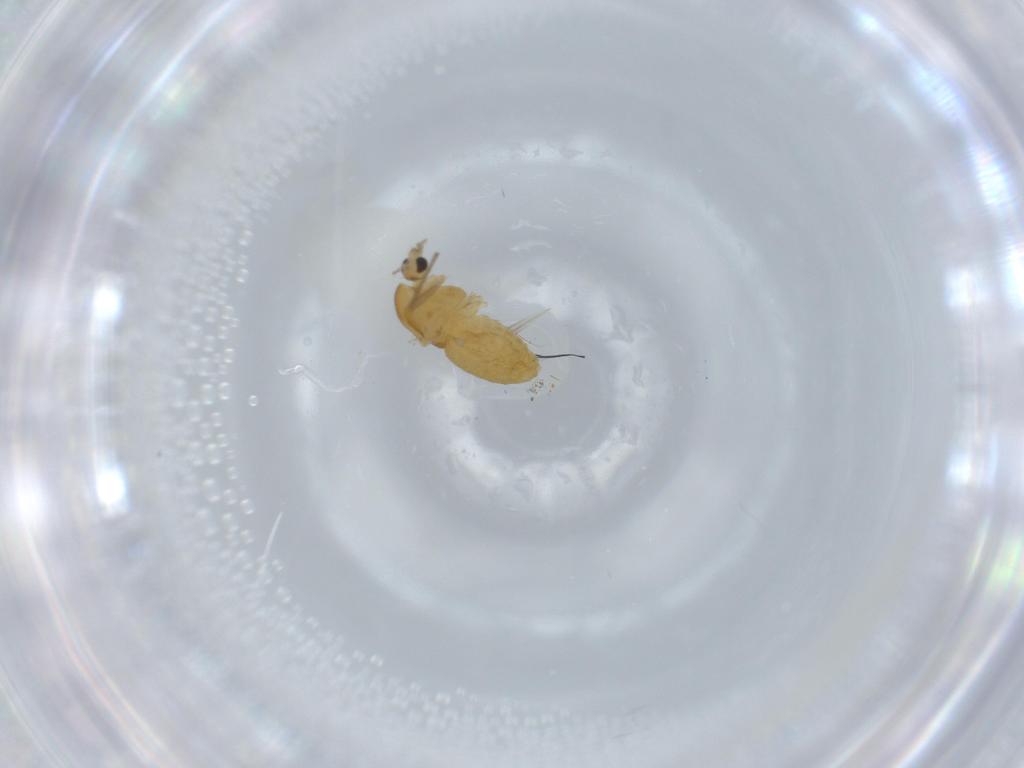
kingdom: Animalia
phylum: Arthropoda
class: Insecta
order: Diptera
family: Chironomidae
